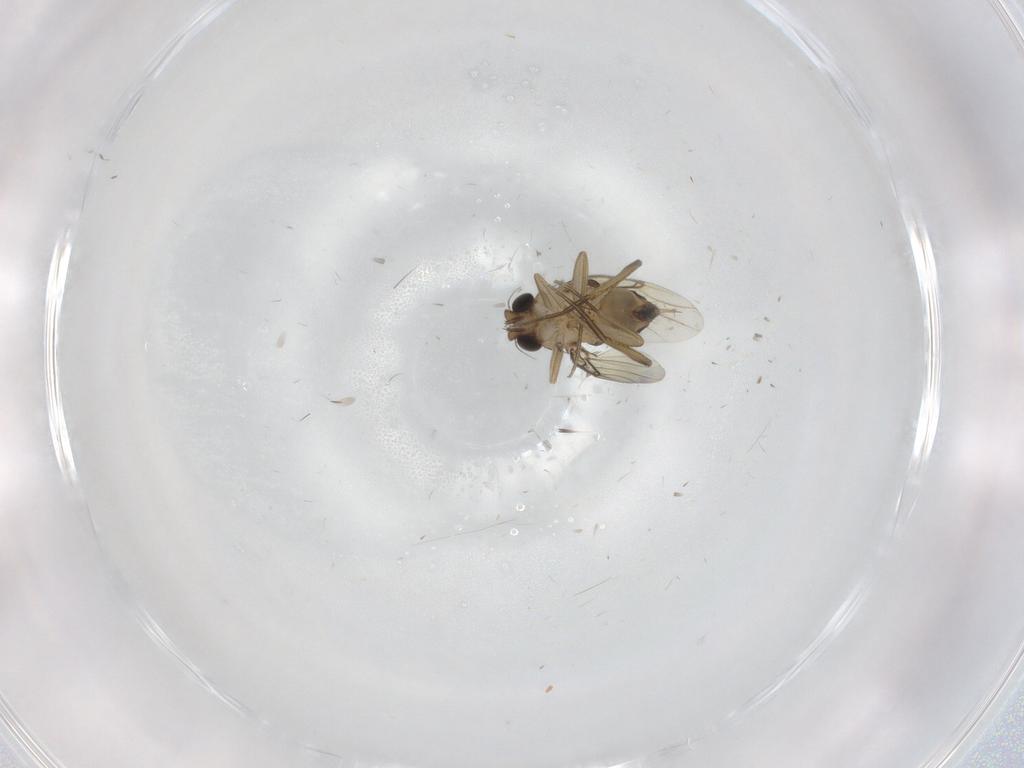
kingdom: Animalia
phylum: Arthropoda
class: Insecta
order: Diptera
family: Phoridae
